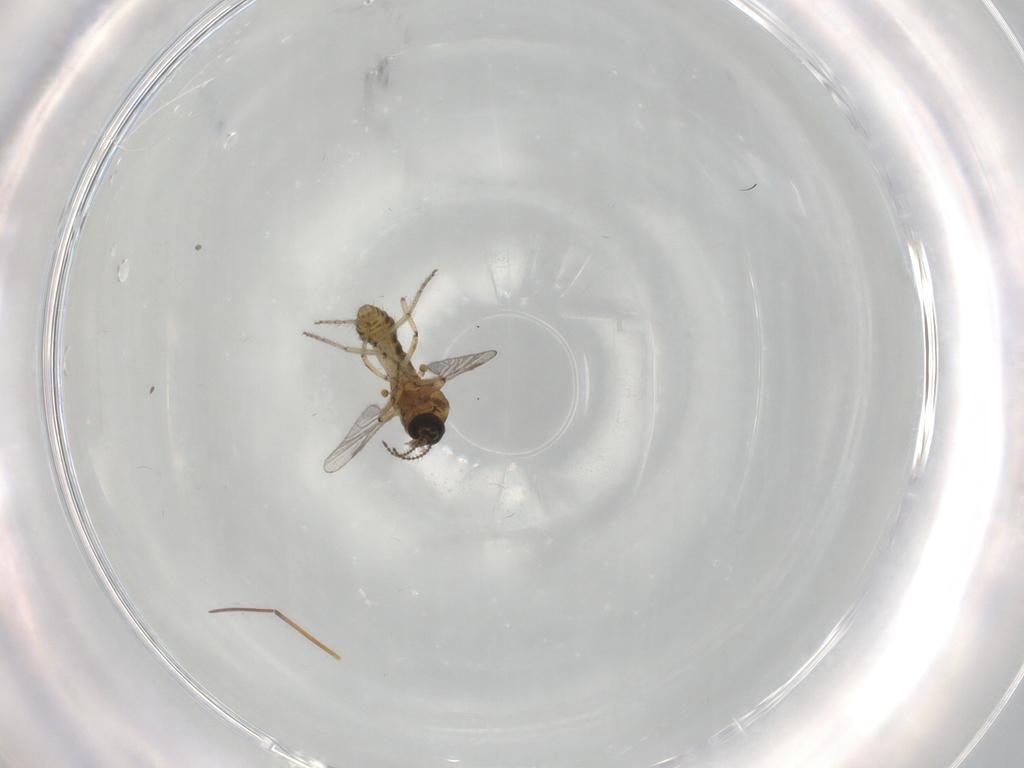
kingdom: Animalia
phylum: Arthropoda
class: Insecta
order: Diptera
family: Ceratopogonidae
